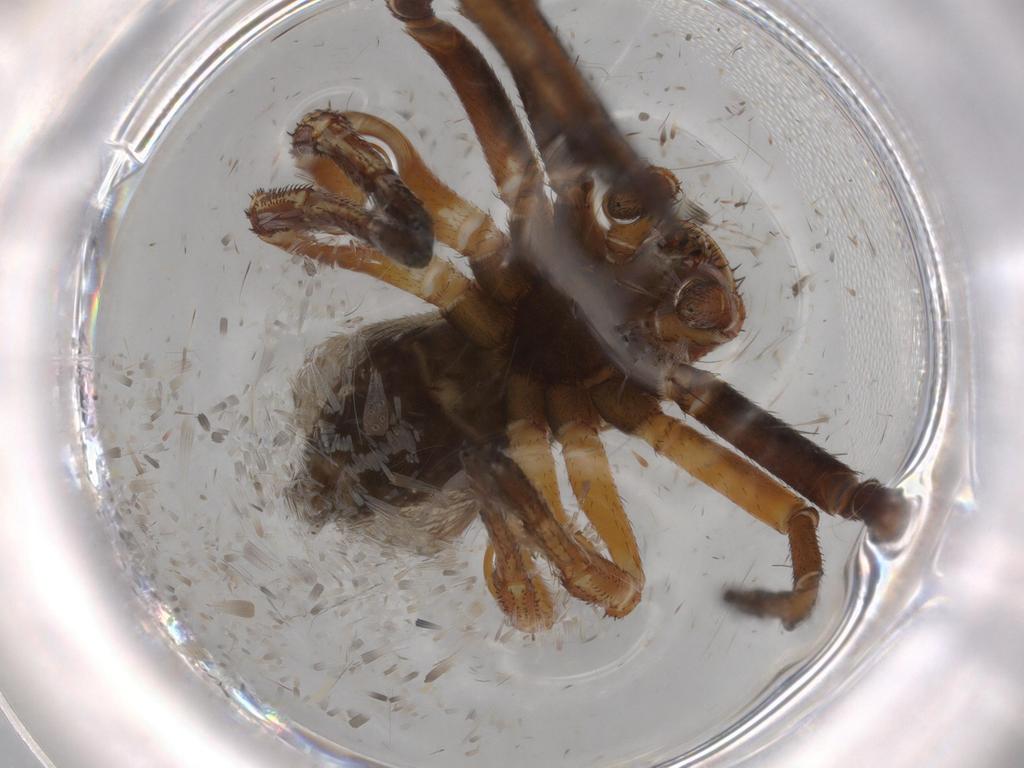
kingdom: Animalia
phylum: Arthropoda
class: Arachnida
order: Araneae
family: Thomisidae
